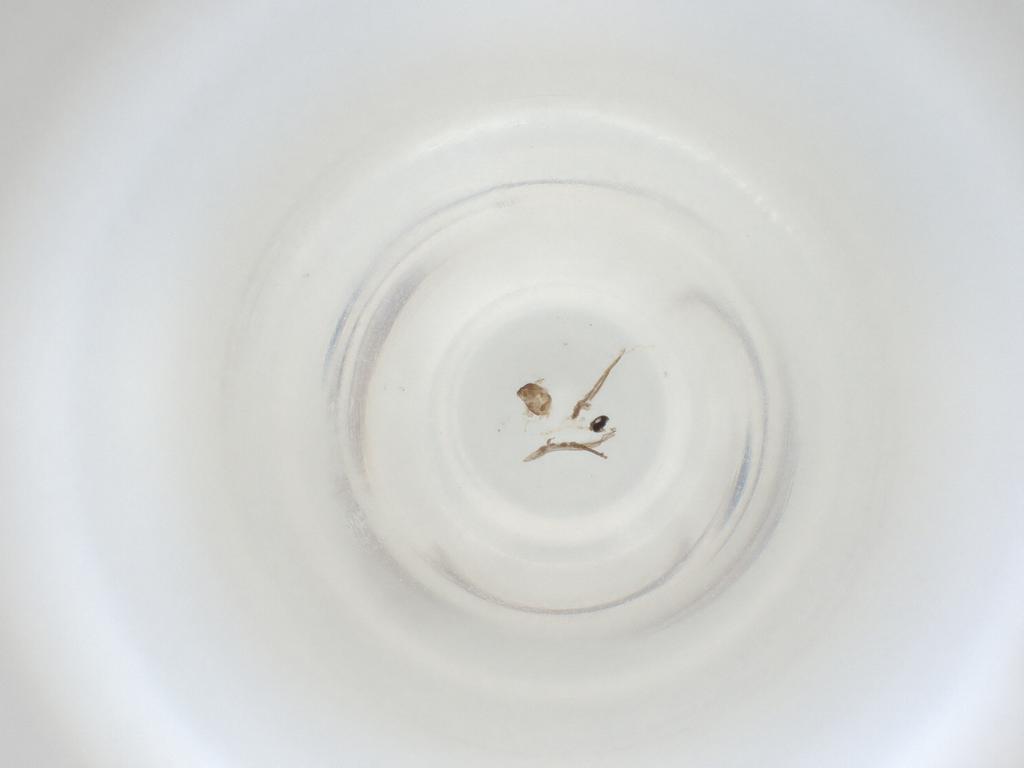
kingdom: Animalia
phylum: Arthropoda
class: Insecta
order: Diptera
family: Cecidomyiidae
